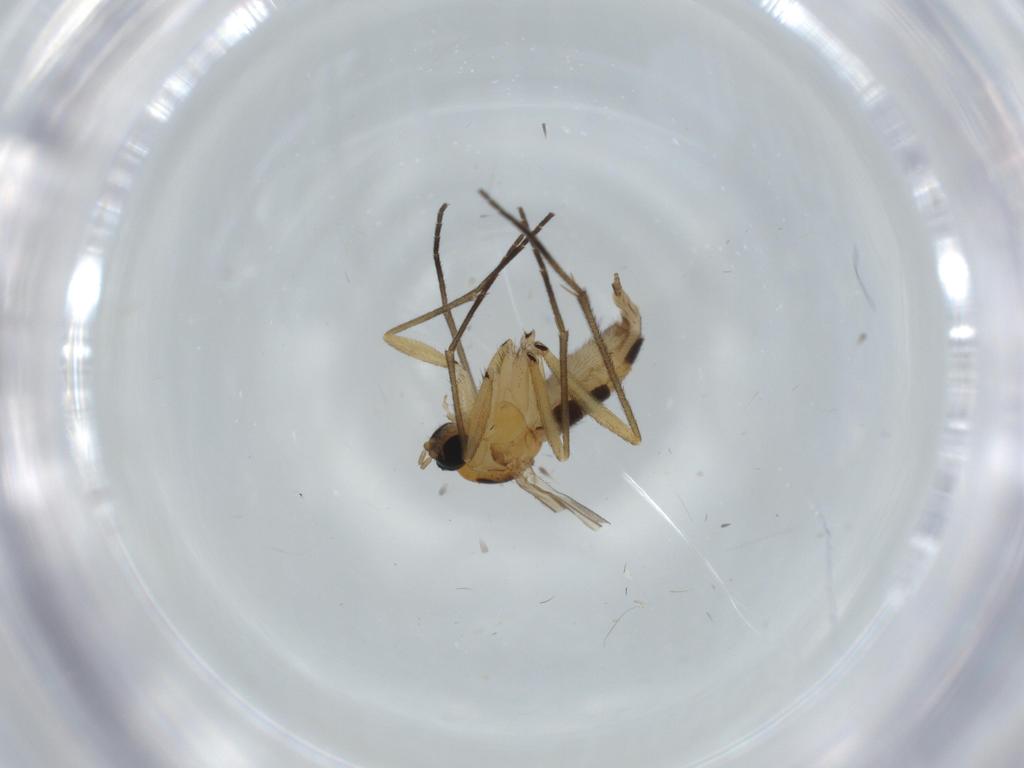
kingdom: Animalia
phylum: Arthropoda
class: Insecta
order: Diptera
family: Sciaridae
